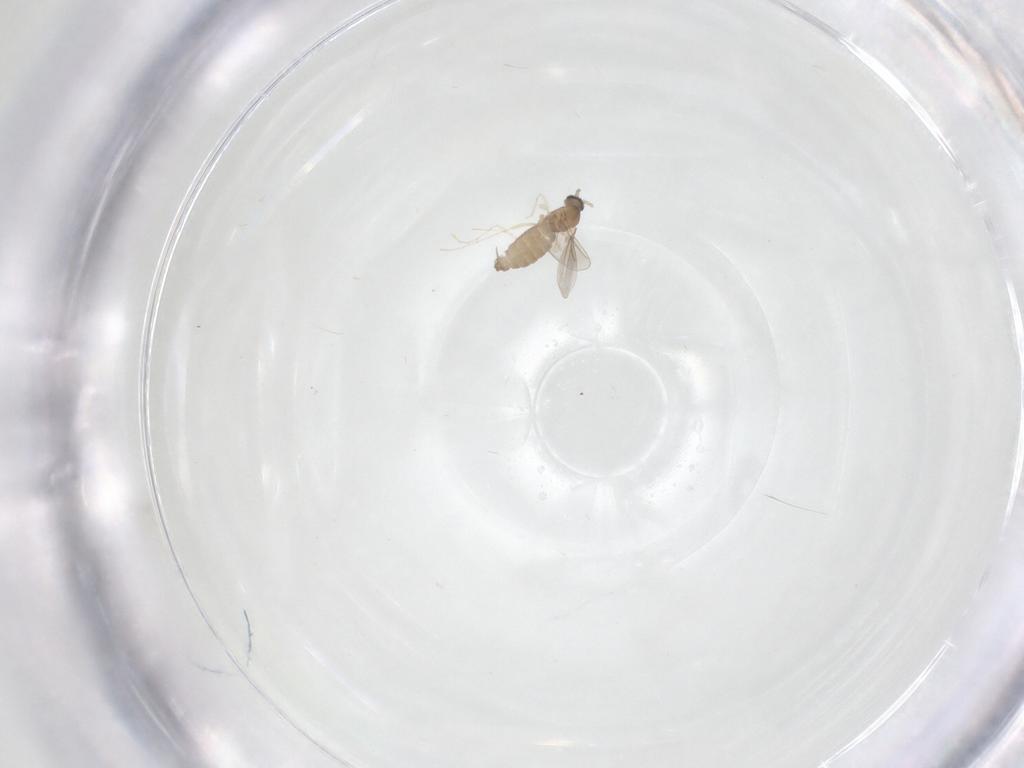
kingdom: Animalia
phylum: Arthropoda
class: Insecta
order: Diptera
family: Cecidomyiidae
